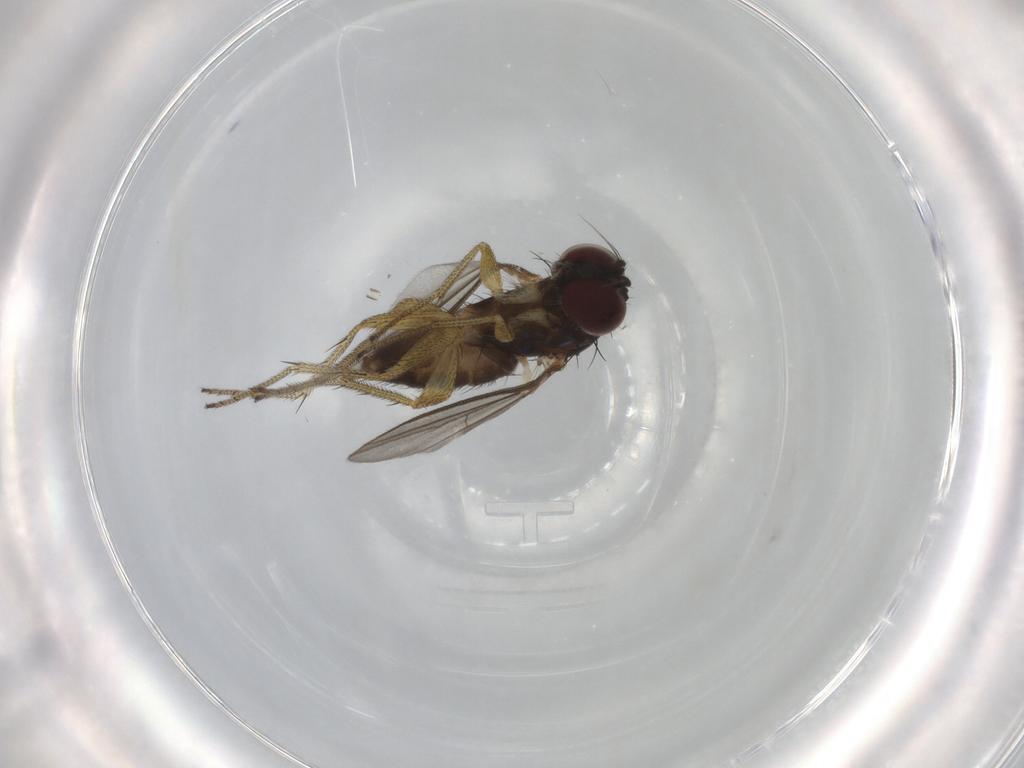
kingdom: Animalia
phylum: Arthropoda
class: Insecta
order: Diptera
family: Dolichopodidae
